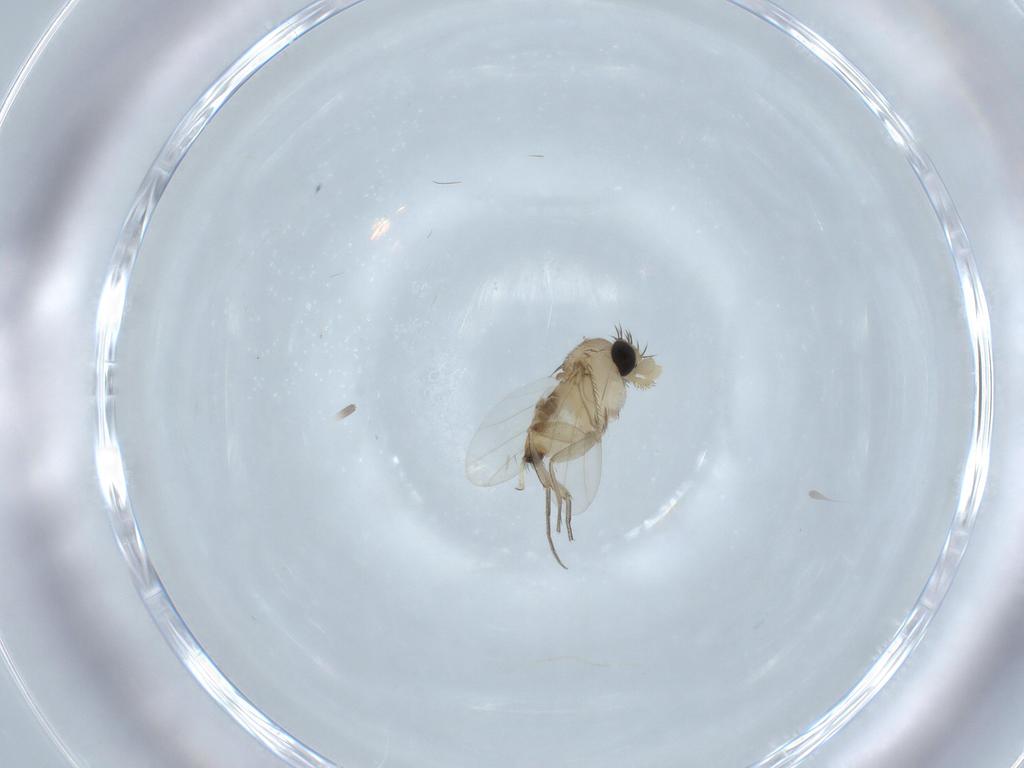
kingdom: Animalia
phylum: Arthropoda
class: Insecta
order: Diptera
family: Phoridae
